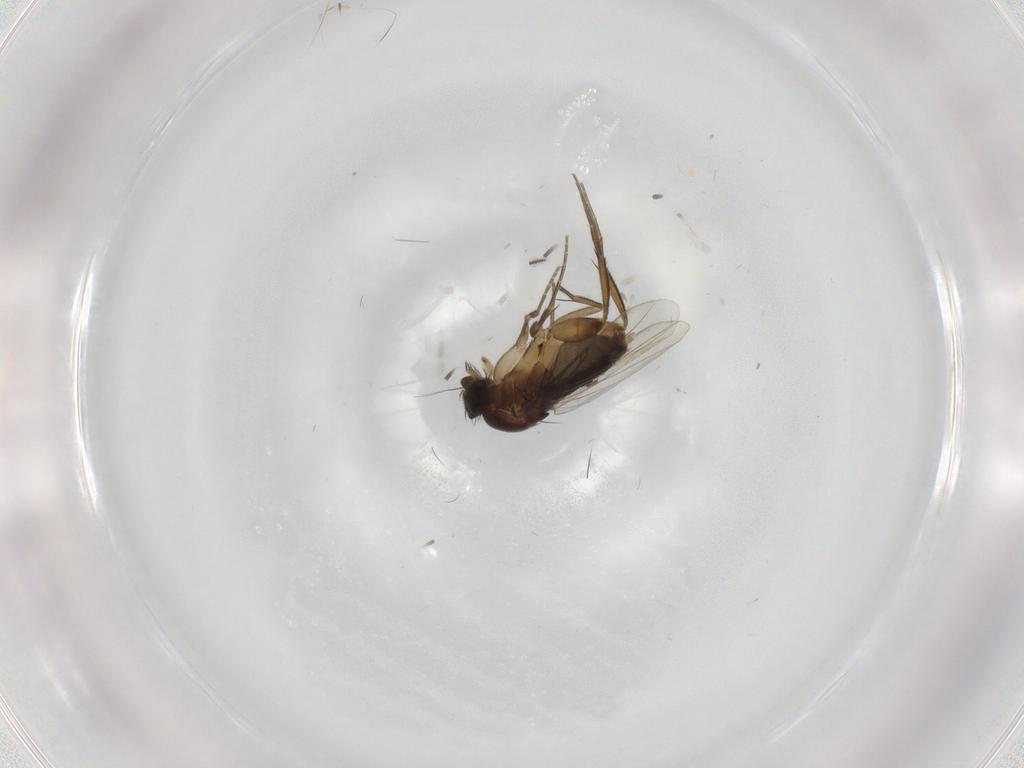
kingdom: Animalia
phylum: Arthropoda
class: Insecta
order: Diptera
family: Phoridae
